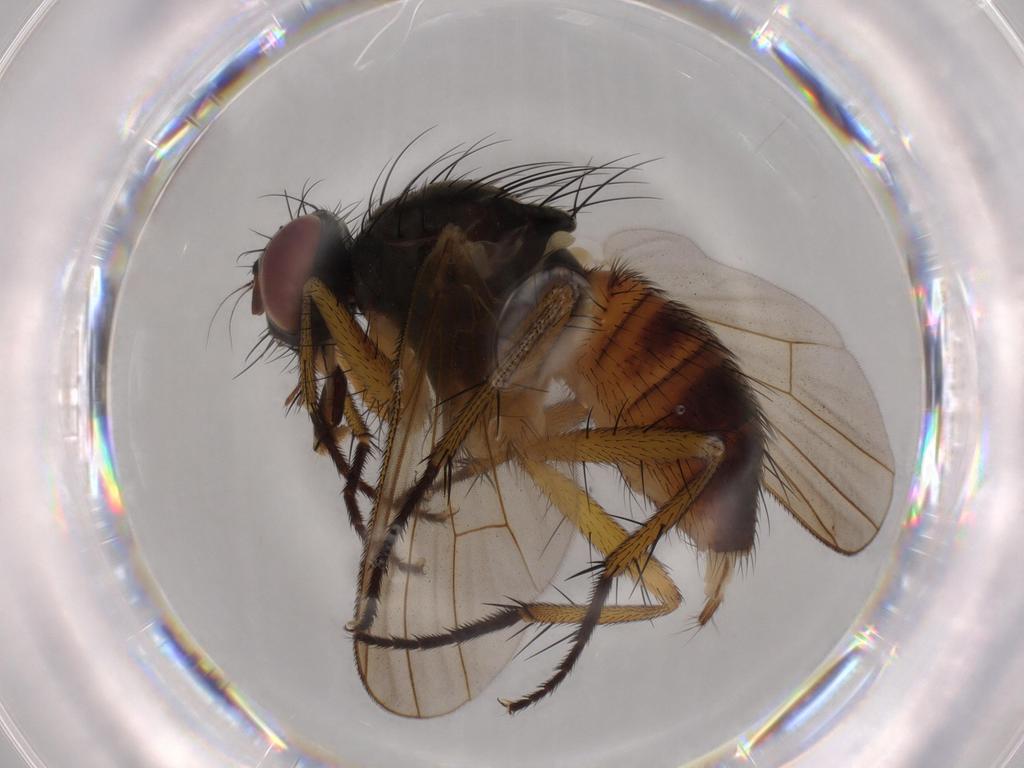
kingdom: Animalia
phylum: Arthropoda
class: Insecta
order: Diptera
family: Muscidae
